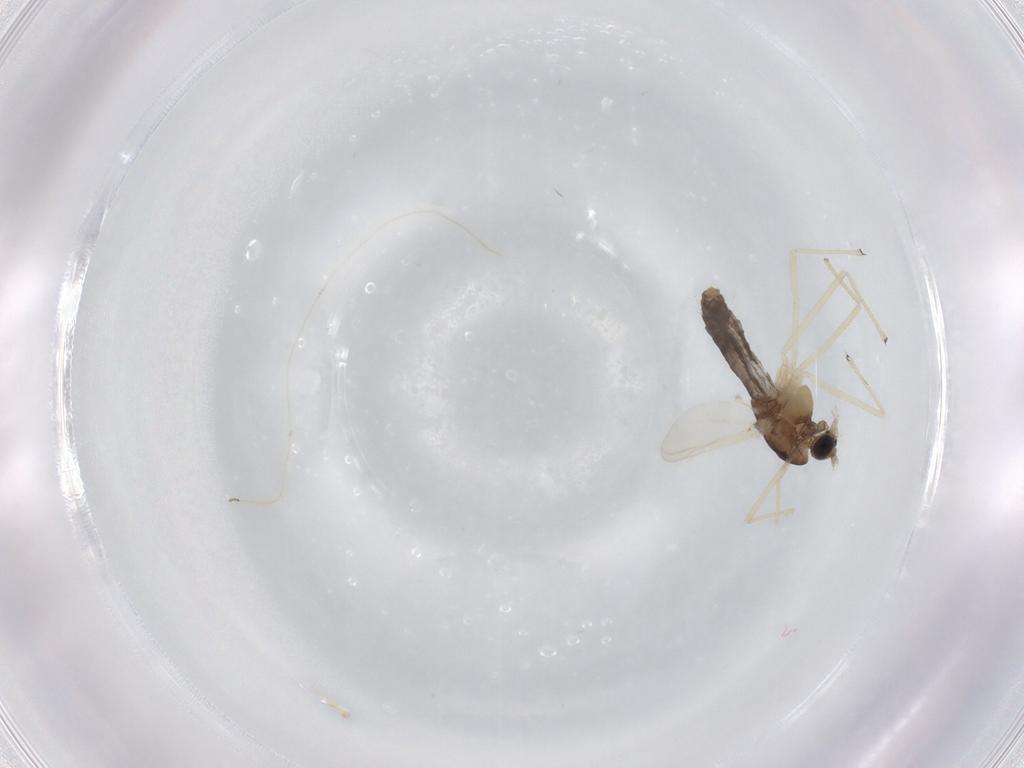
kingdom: Animalia
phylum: Arthropoda
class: Insecta
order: Diptera
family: Chironomidae
